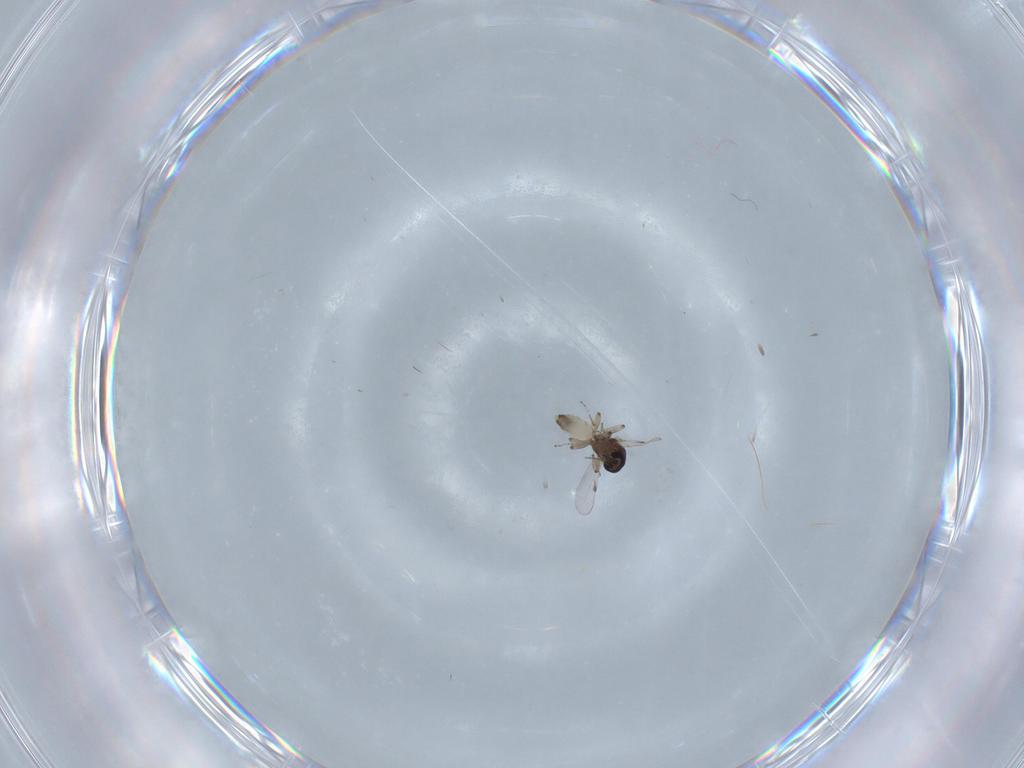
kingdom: Animalia
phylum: Arthropoda
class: Insecta
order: Diptera
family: Ceratopogonidae
